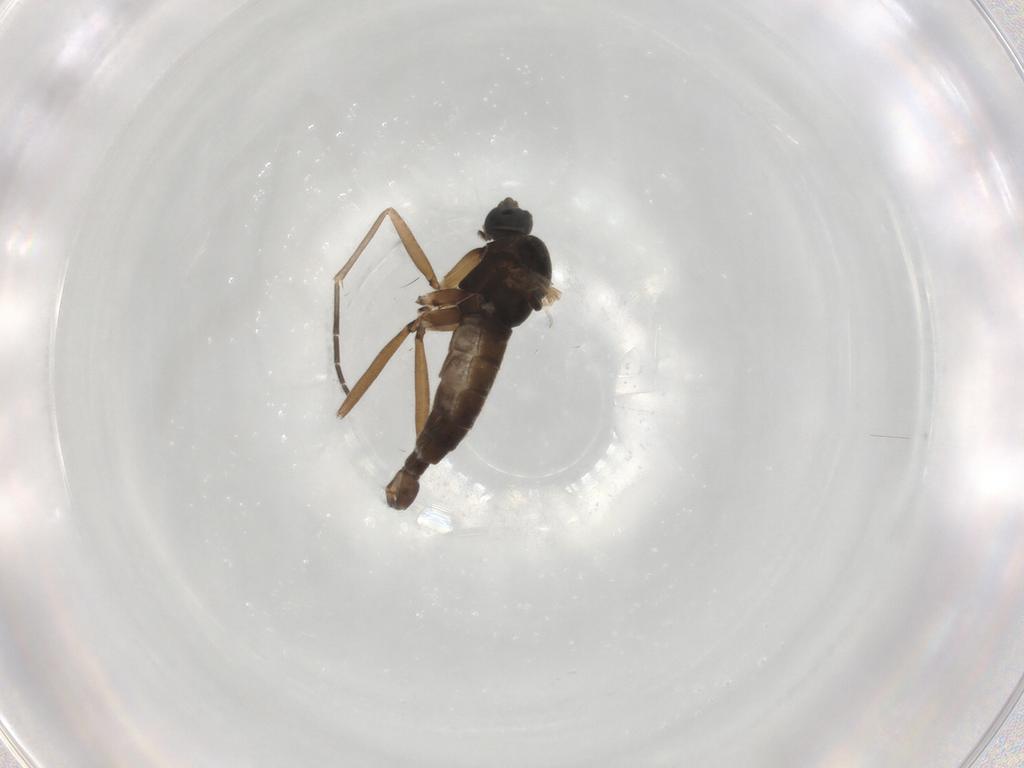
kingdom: Animalia
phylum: Arthropoda
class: Insecta
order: Diptera
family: Sciaridae
